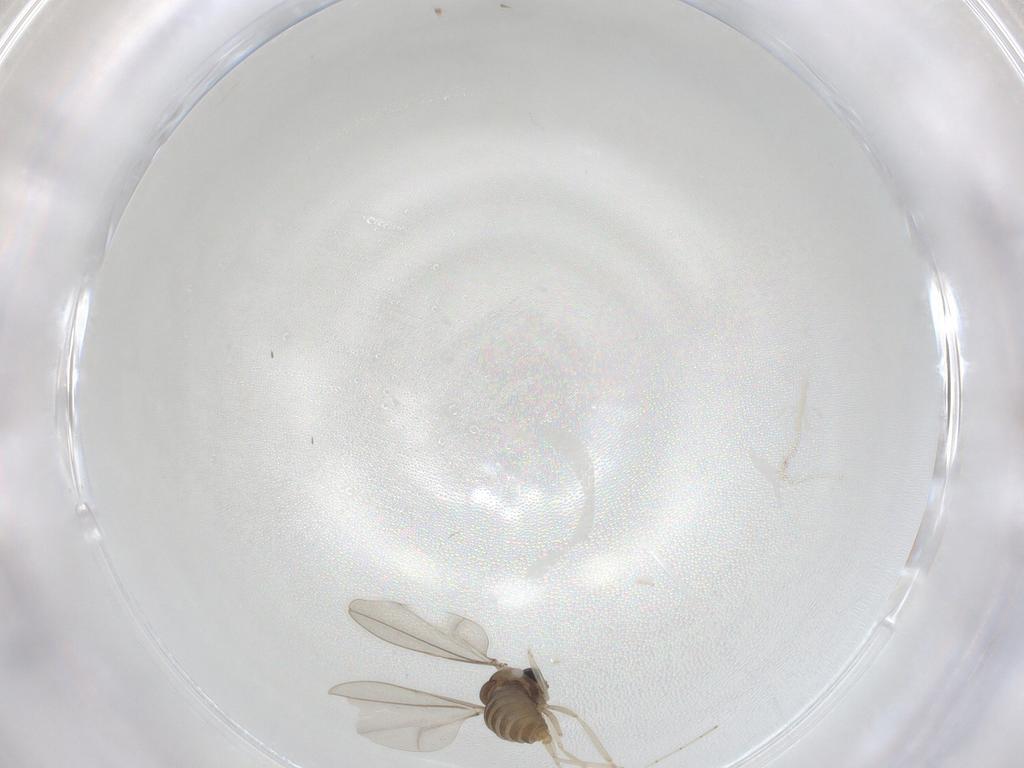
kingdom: Animalia
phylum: Arthropoda
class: Insecta
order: Diptera
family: Cecidomyiidae
